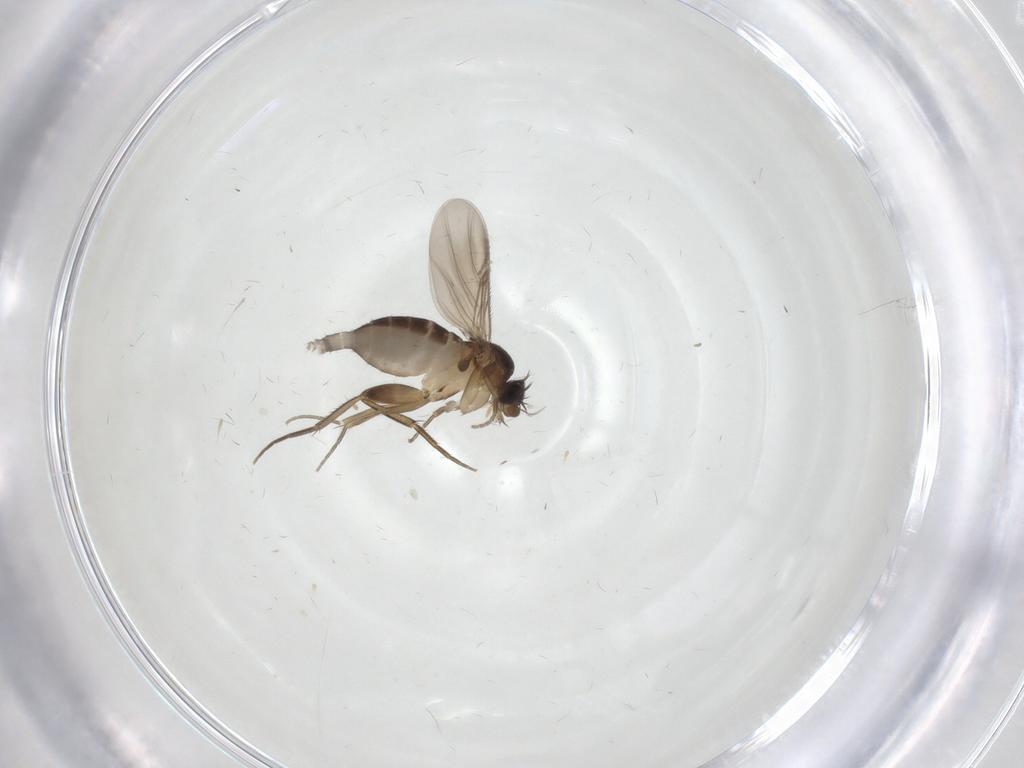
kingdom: Animalia
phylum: Arthropoda
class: Insecta
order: Diptera
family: Phoridae
